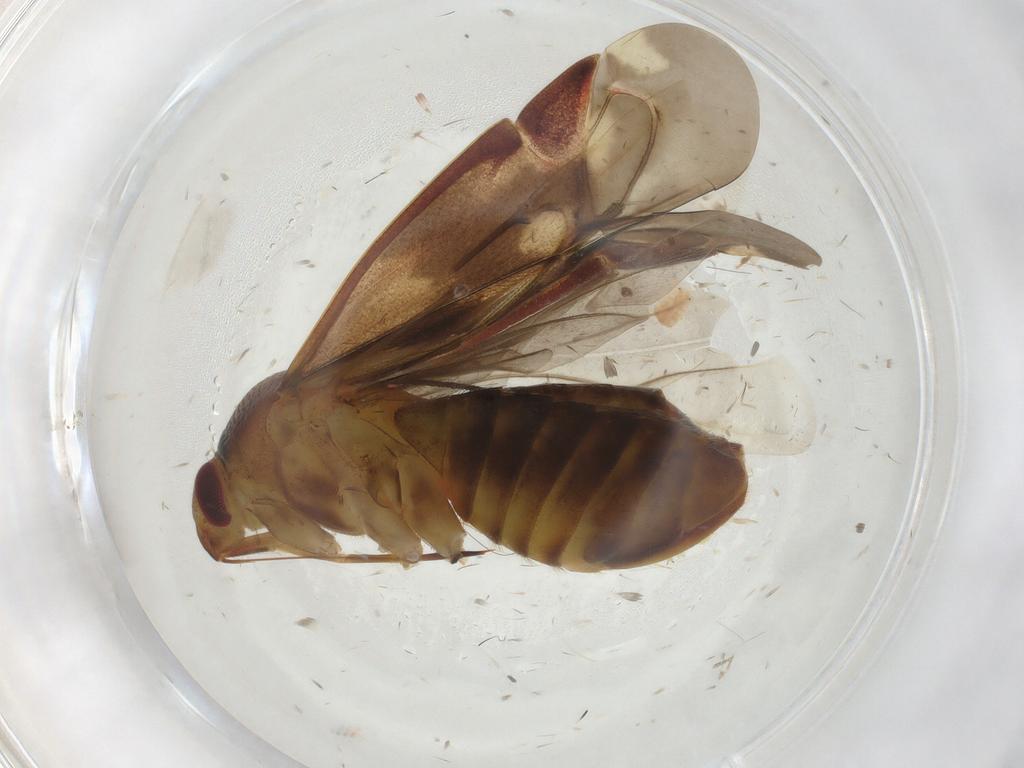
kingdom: Animalia
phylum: Arthropoda
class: Insecta
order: Hemiptera
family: Miridae
